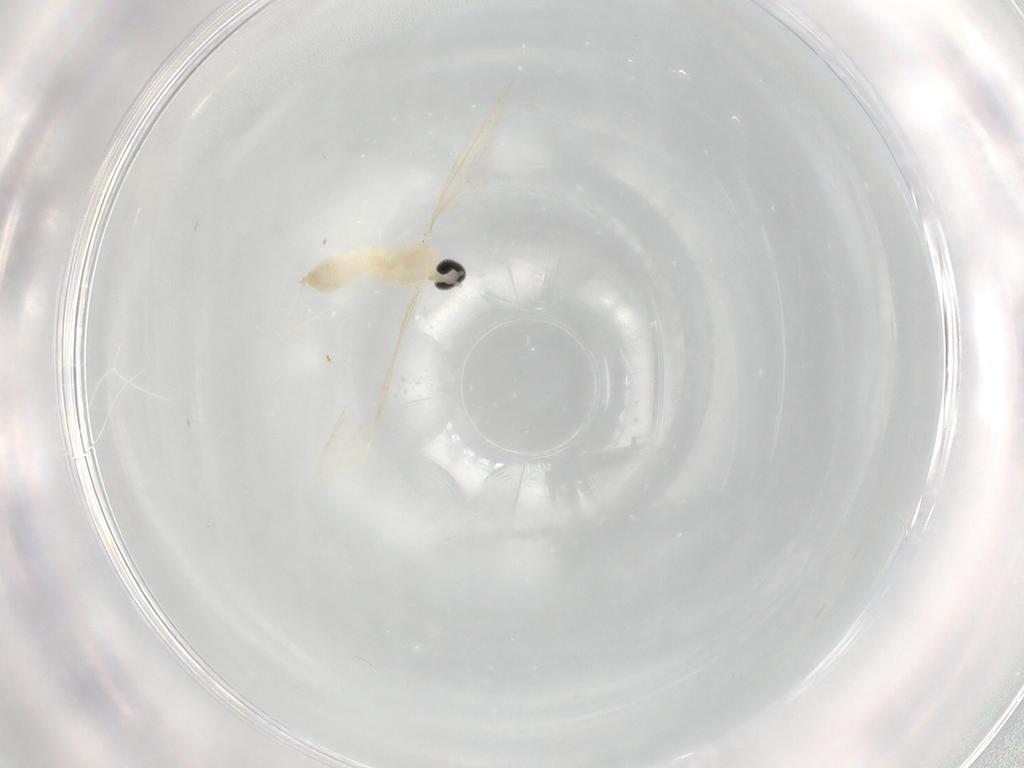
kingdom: Animalia
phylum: Arthropoda
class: Insecta
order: Diptera
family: Cecidomyiidae
